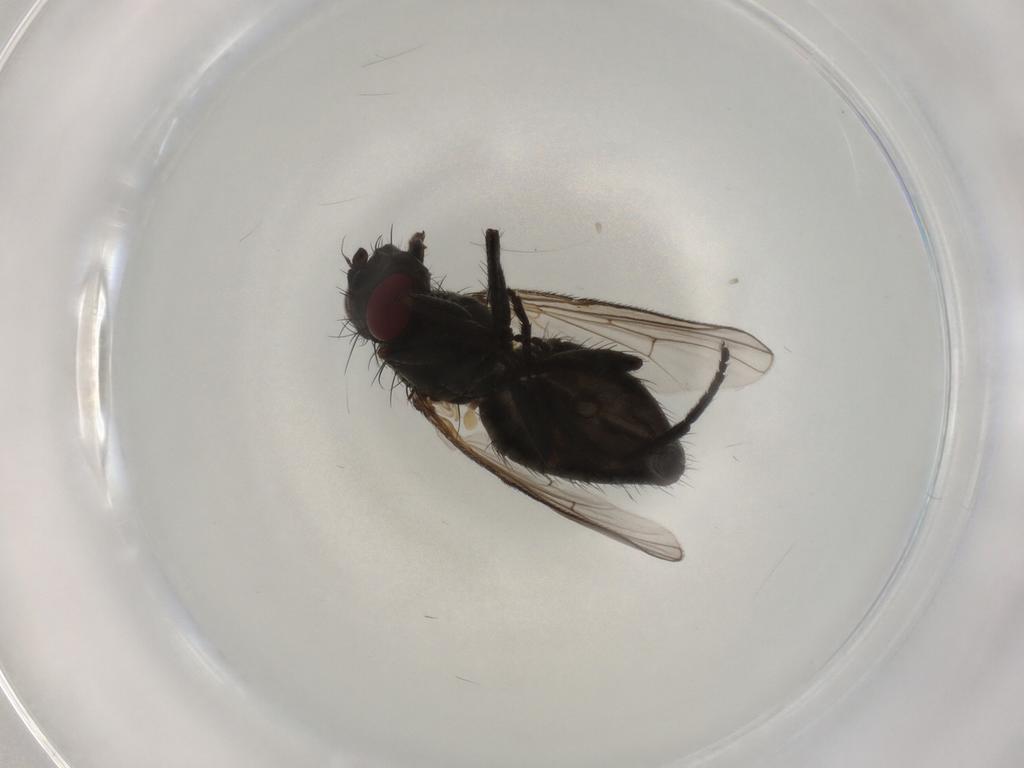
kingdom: Animalia
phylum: Arthropoda
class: Insecta
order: Diptera
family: Muscidae
